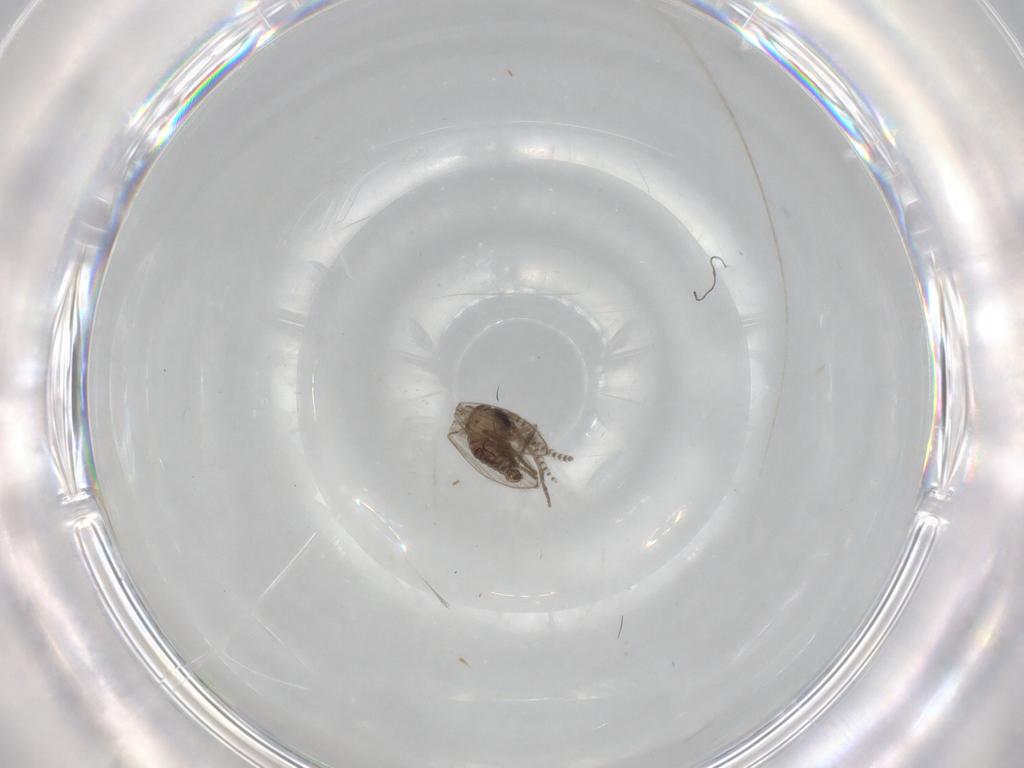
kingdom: Animalia
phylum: Arthropoda
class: Insecta
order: Diptera
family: Psychodidae
